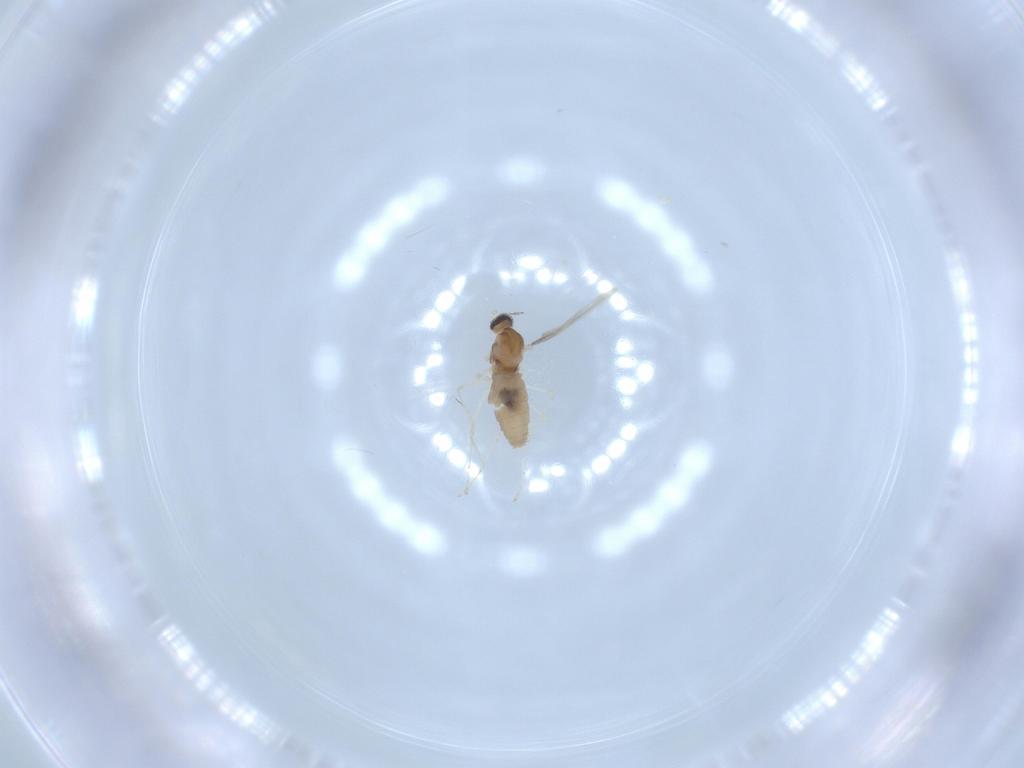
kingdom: Animalia
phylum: Arthropoda
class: Insecta
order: Diptera
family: Cecidomyiidae
